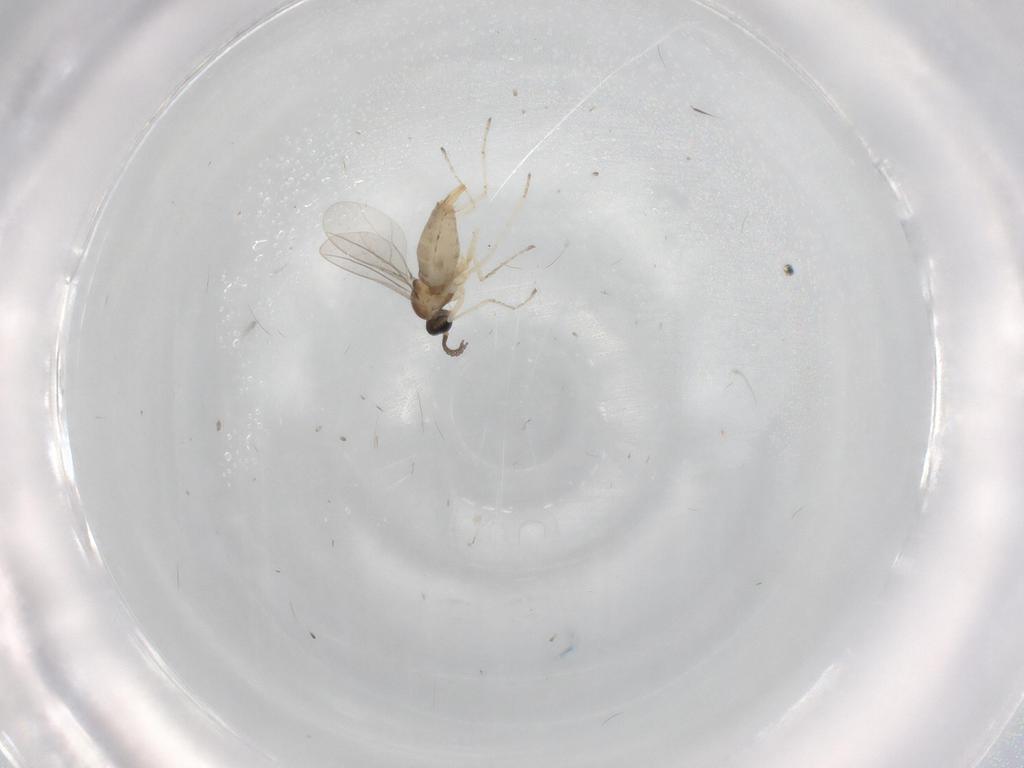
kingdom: Animalia
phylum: Arthropoda
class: Insecta
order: Diptera
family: Cecidomyiidae
